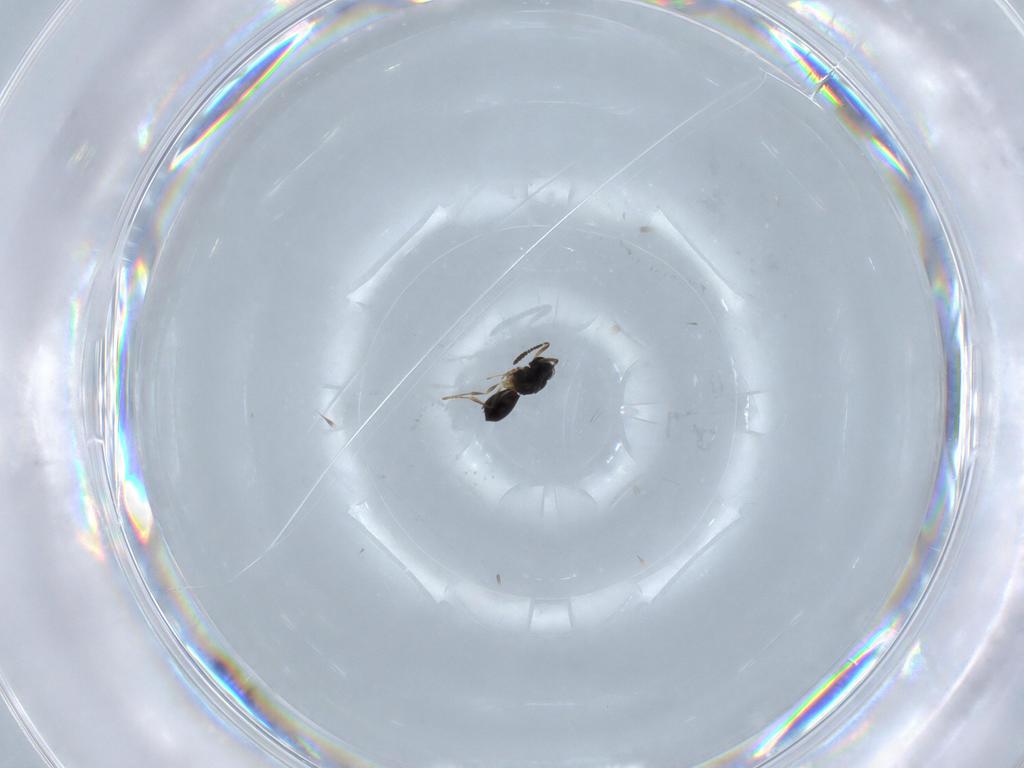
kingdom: Animalia
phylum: Arthropoda
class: Insecta
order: Hymenoptera
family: Scelionidae
